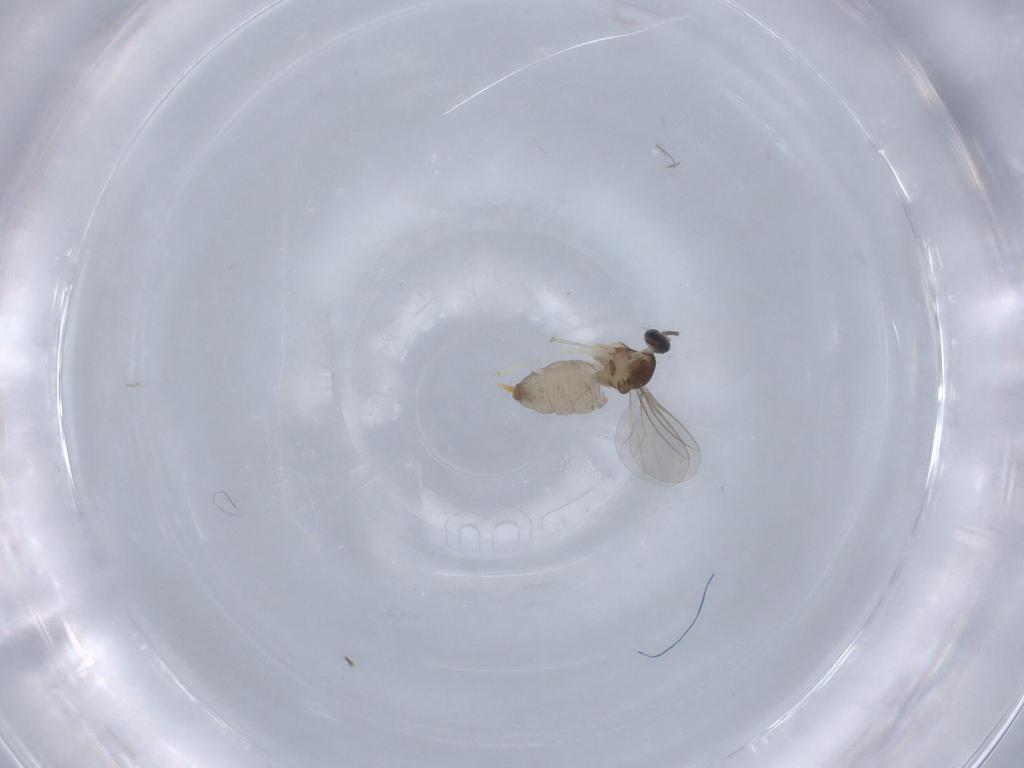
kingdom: Animalia
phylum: Arthropoda
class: Insecta
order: Diptera
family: Cecidomyiidae
